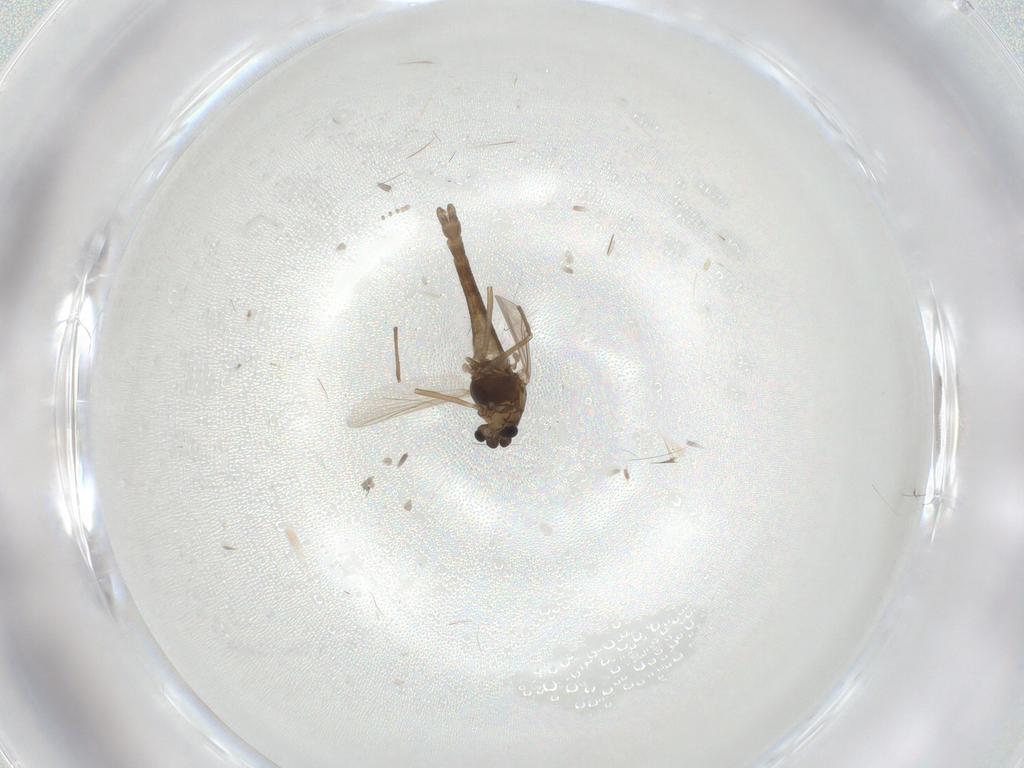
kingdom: Animalia
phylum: Arthropoda
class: Insecta
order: Diptera
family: Chironomidae
